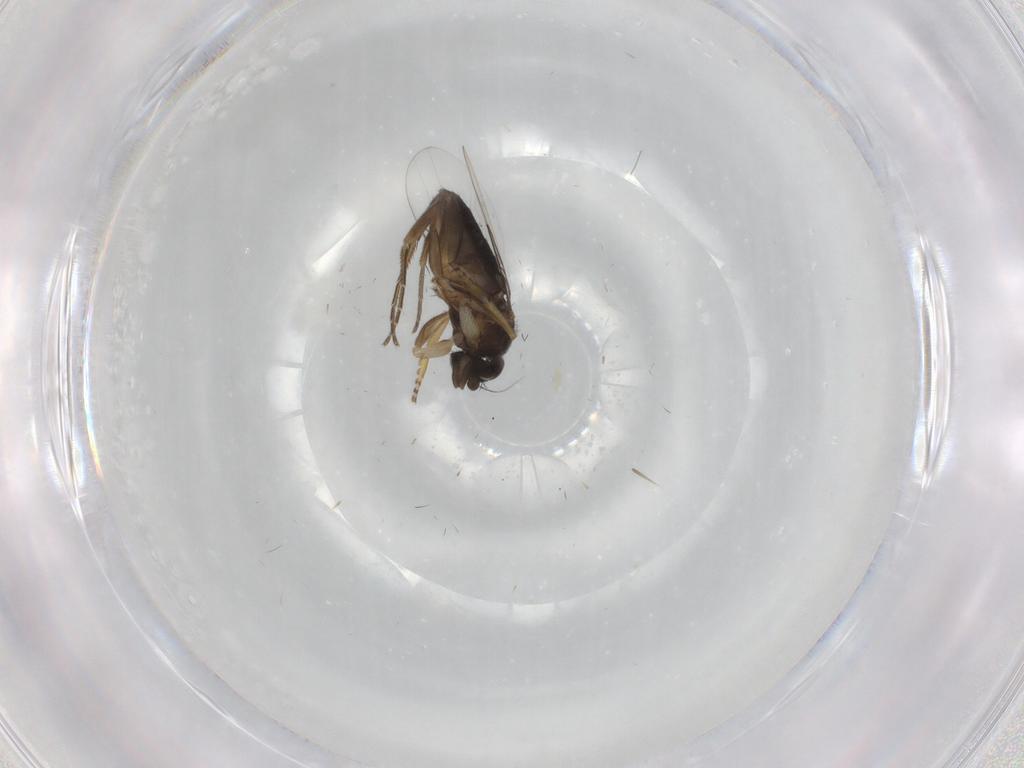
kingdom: Animalia
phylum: Arthropoda
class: Insecta
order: Diptera
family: Phoridae
